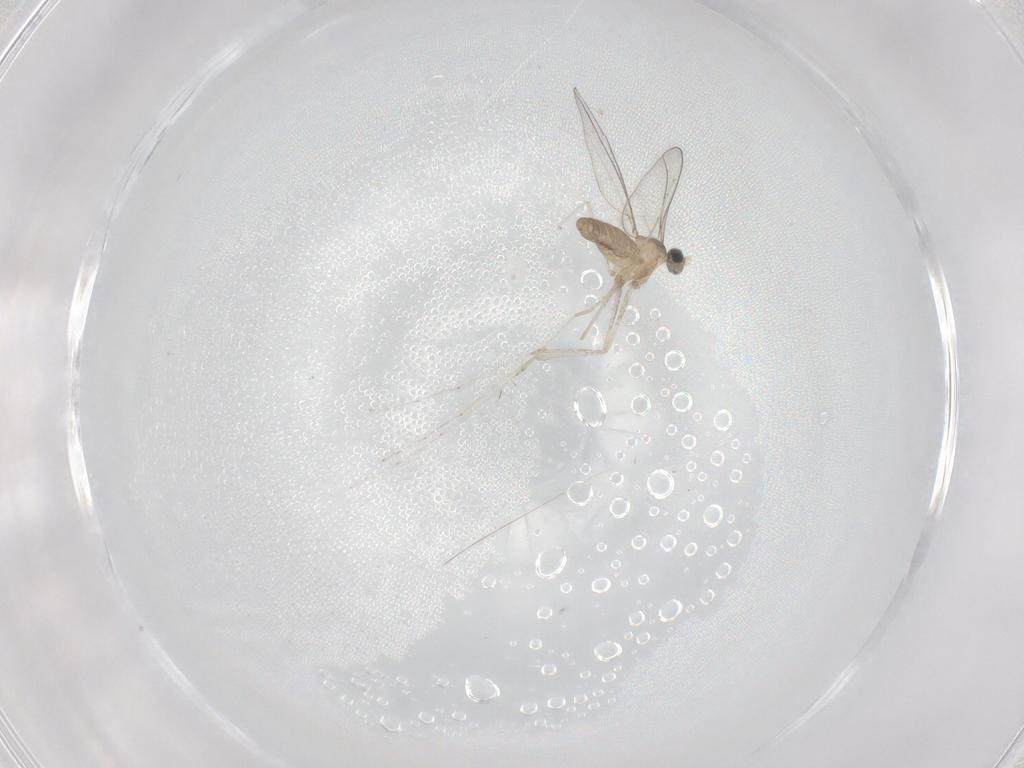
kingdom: Animalia
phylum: Arthropoda
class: Insecta
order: Diptera
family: Cecidomyiidae
